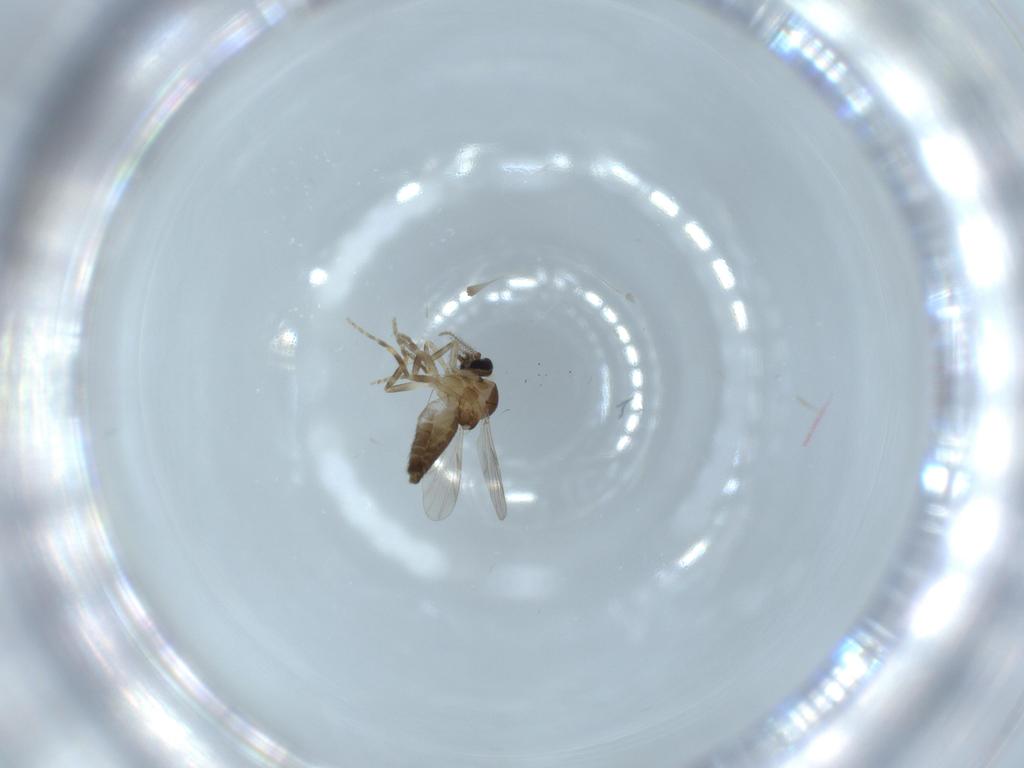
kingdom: Animalia
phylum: Arthropoda
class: Insecta
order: Diptera
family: Ceratopogonidae
